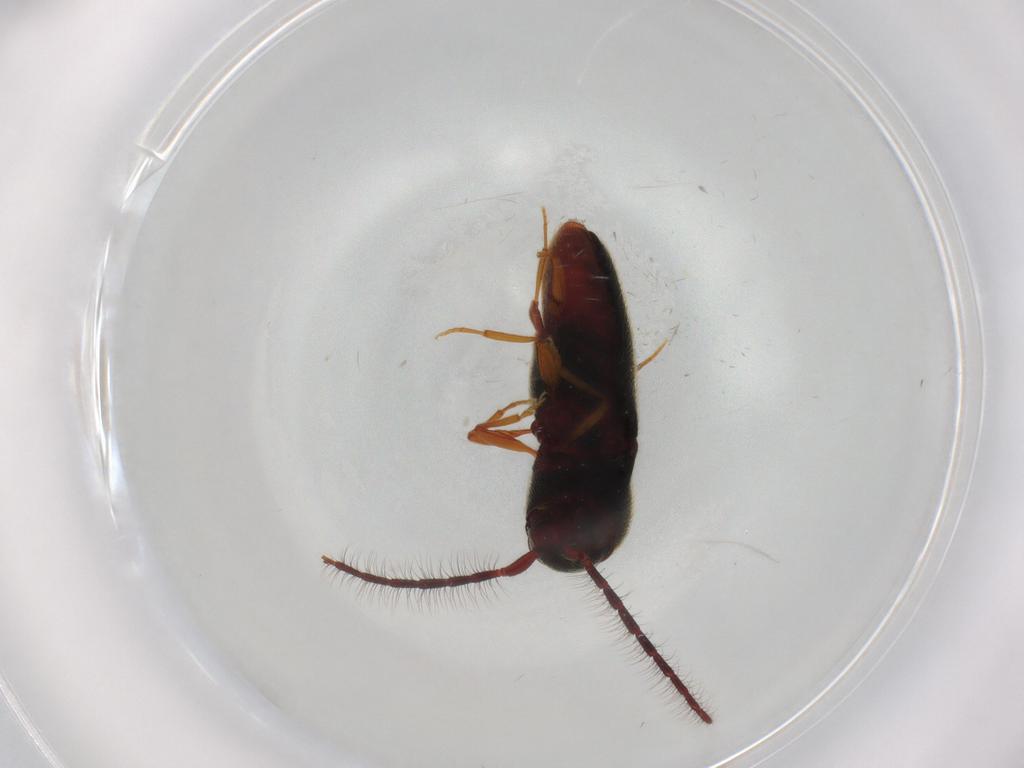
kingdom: Animalia
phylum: Arthropoda
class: Insecta
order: Coleoptera
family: Eucnemidae
